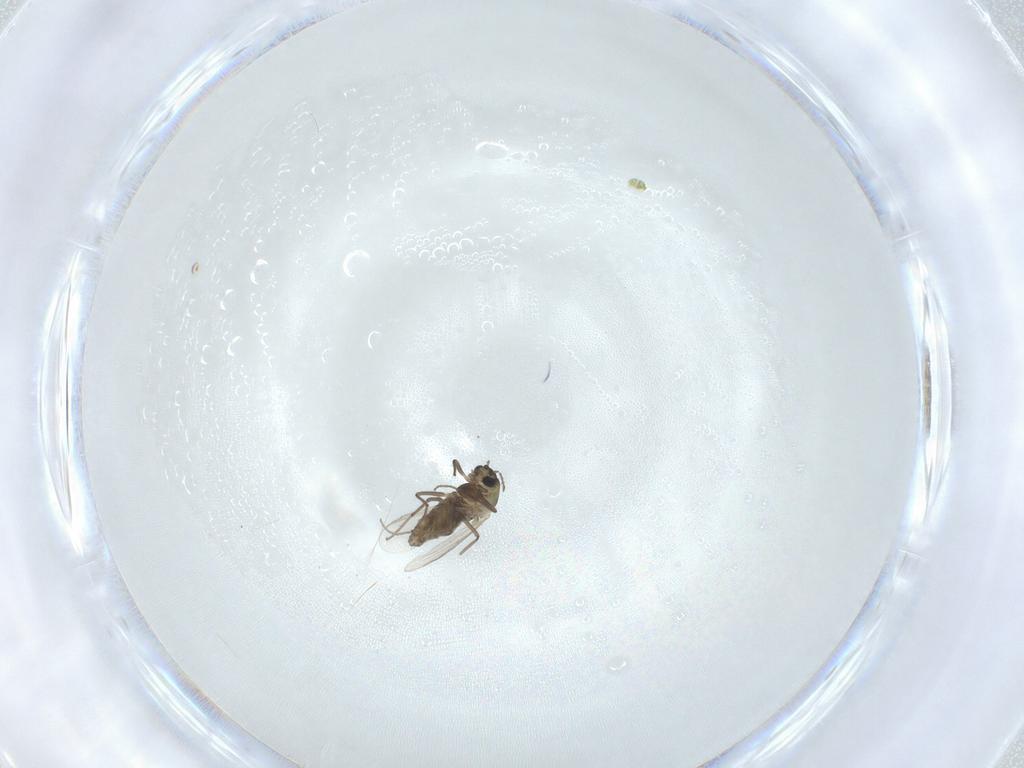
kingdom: Animalia
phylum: Arthropoda
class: Insecta
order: Diptera
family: Chironomidae
